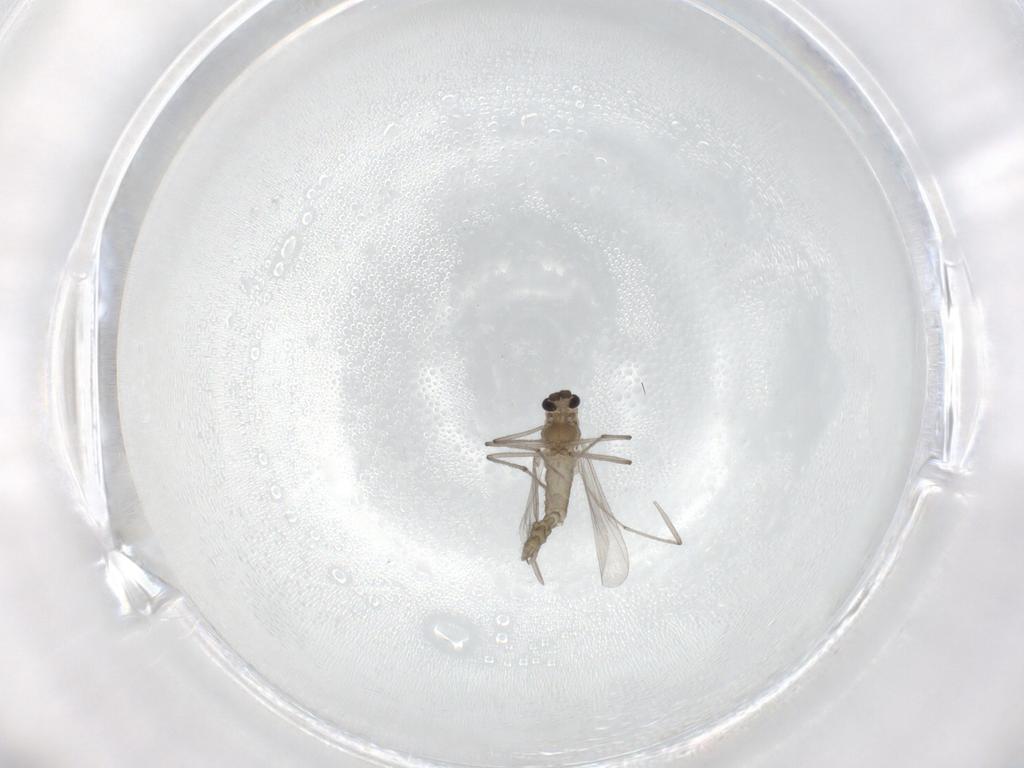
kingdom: Animalia
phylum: Arthropoda
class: Insecta
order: Diptera
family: Chironomidae
